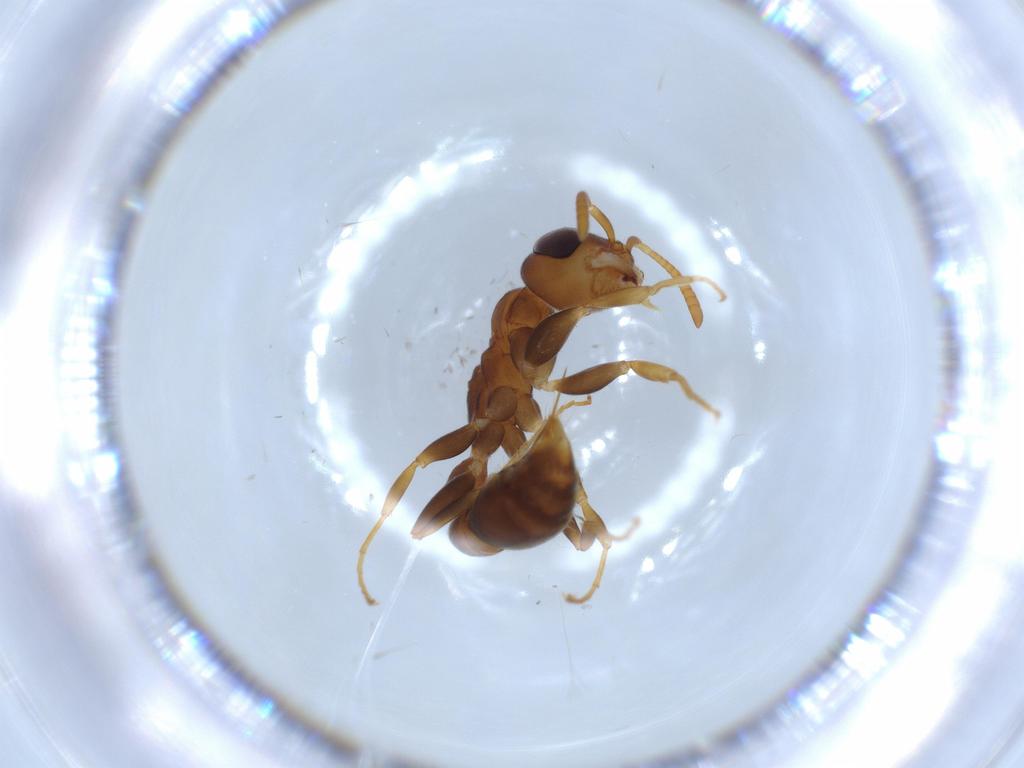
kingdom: Animalia
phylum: Arthropoda
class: Insecta
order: Hymenoptera
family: Formicidae
